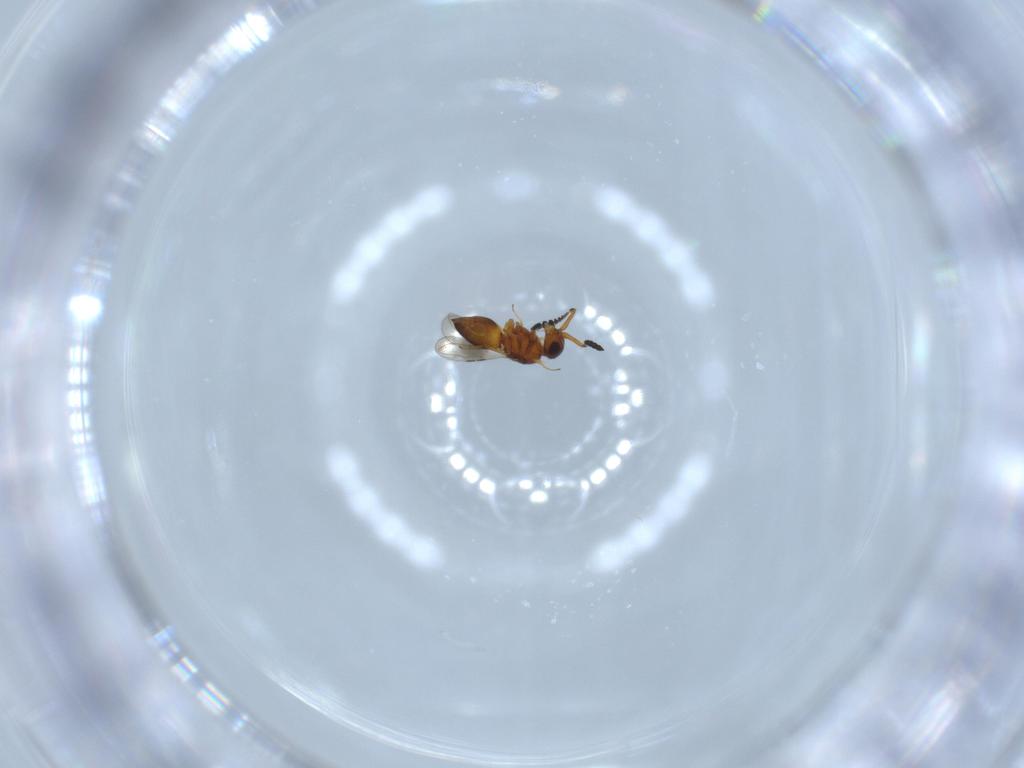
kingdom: Animalia
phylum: Arthropoda
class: Insecta
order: Hymenoptera
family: Ceraphronidae
